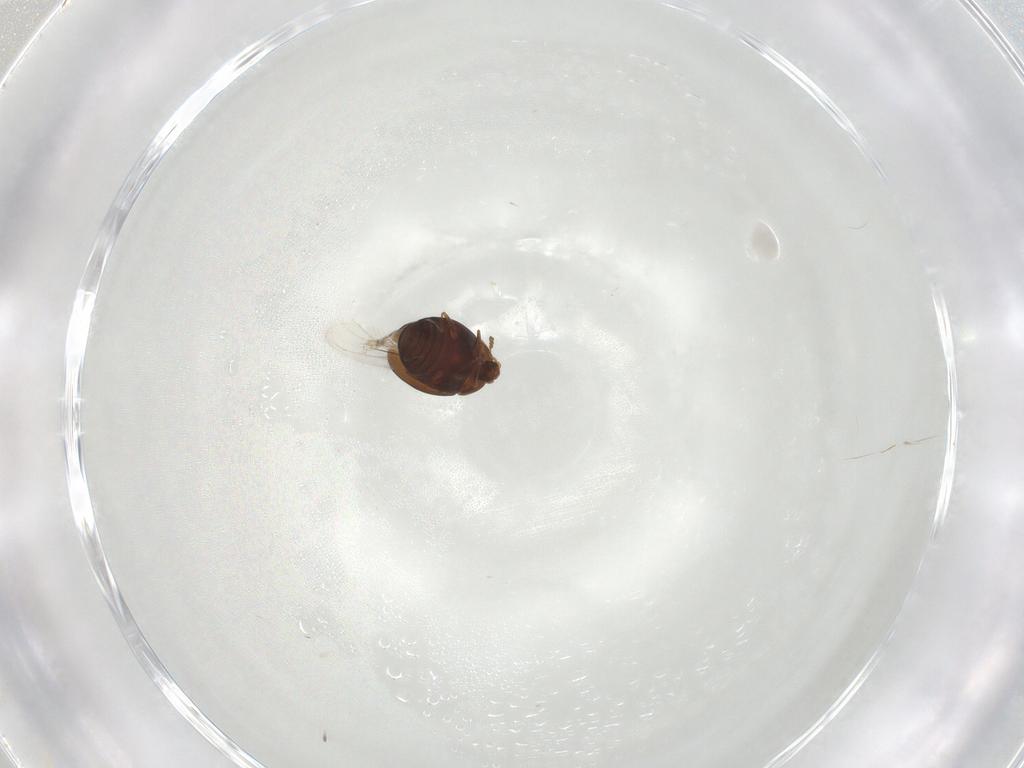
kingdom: Animalia
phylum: Arthropoda
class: Insecta
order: Coleoptera
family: Corylophidae
